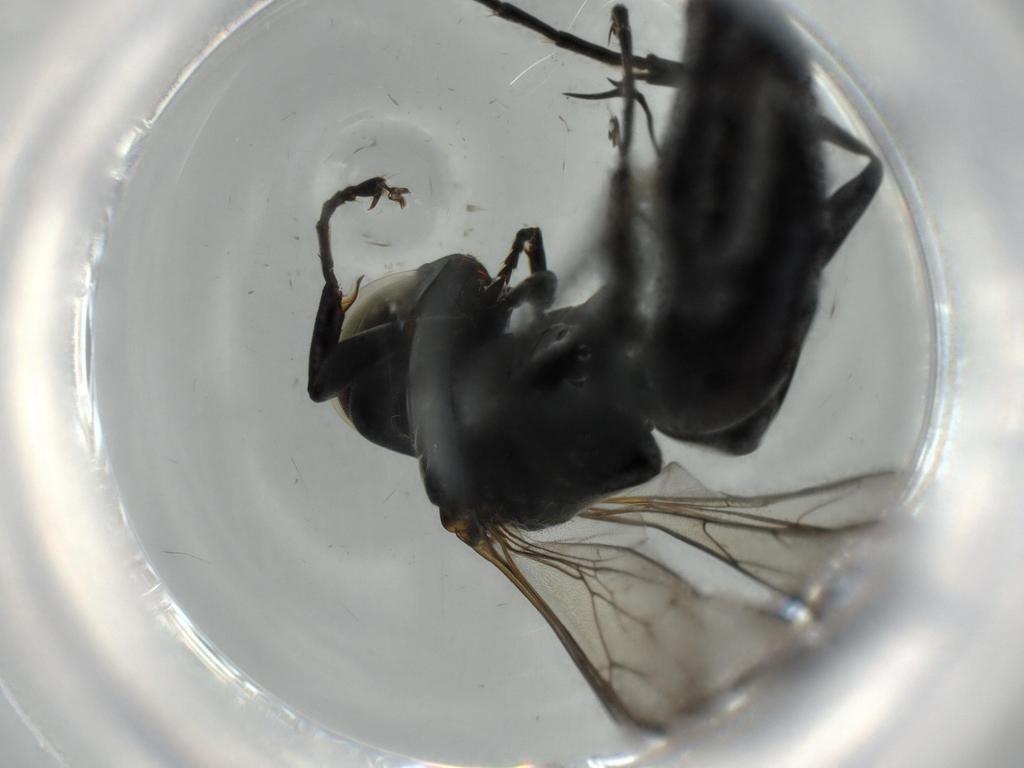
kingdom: Animalia
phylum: Arthropoda
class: Insecta
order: Hymenoptera
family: Crabronidae
